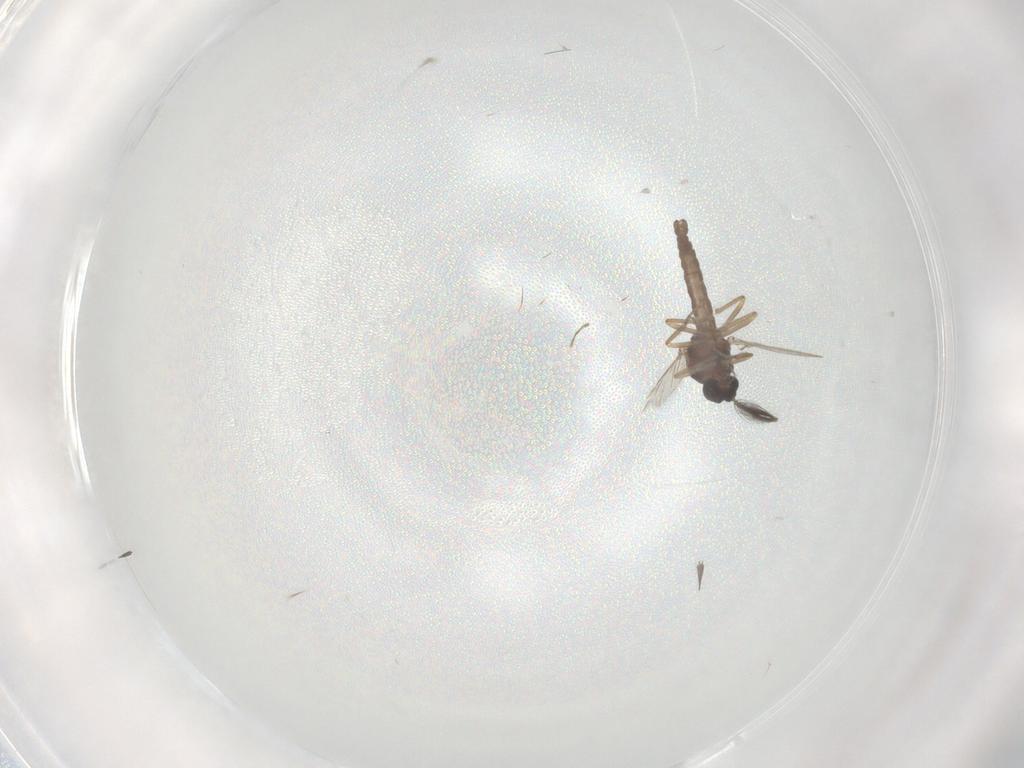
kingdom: Animalia
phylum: Arthropoda
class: Insecta
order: Diptera
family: Ceratopogonidae
